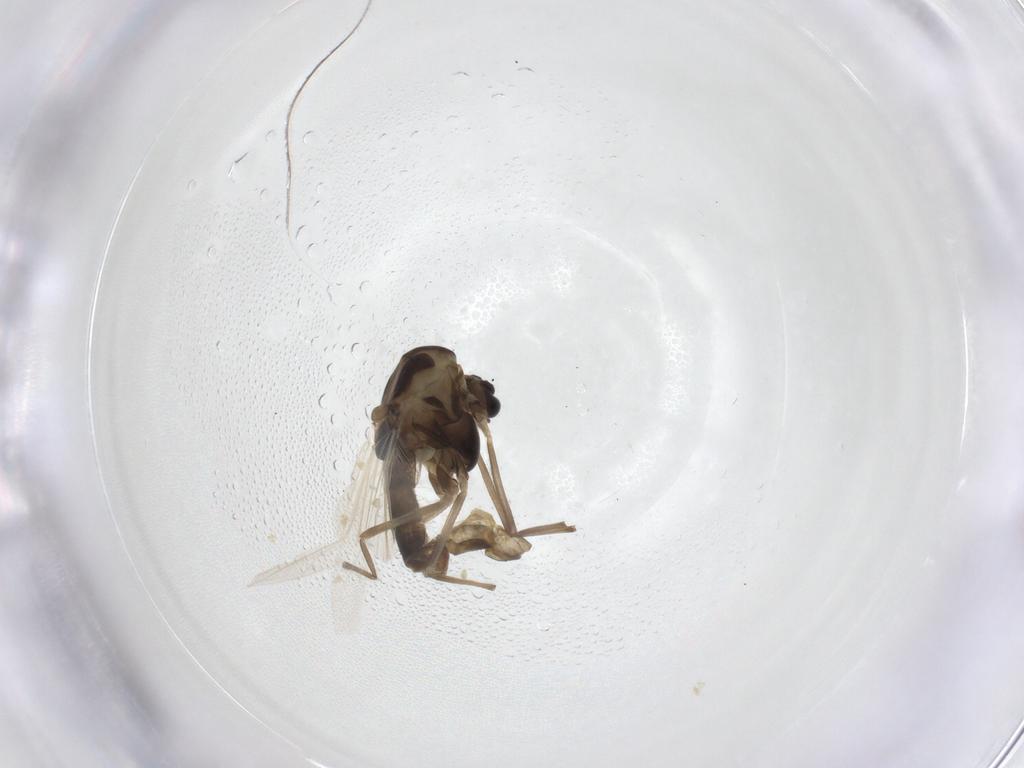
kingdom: Animalia
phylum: Arthropoda
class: Insecta
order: Diptera
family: Chironomidae
